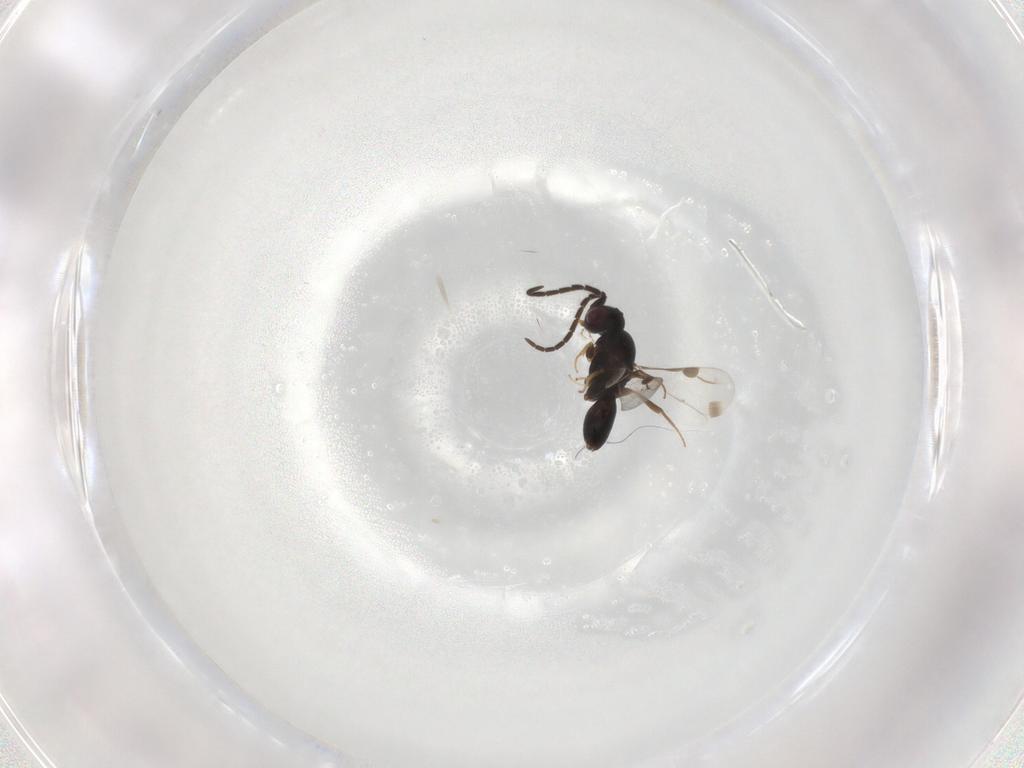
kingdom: Animalia
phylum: Arthropoda
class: Insecta
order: Hymenoptera
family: Megaspilidae
